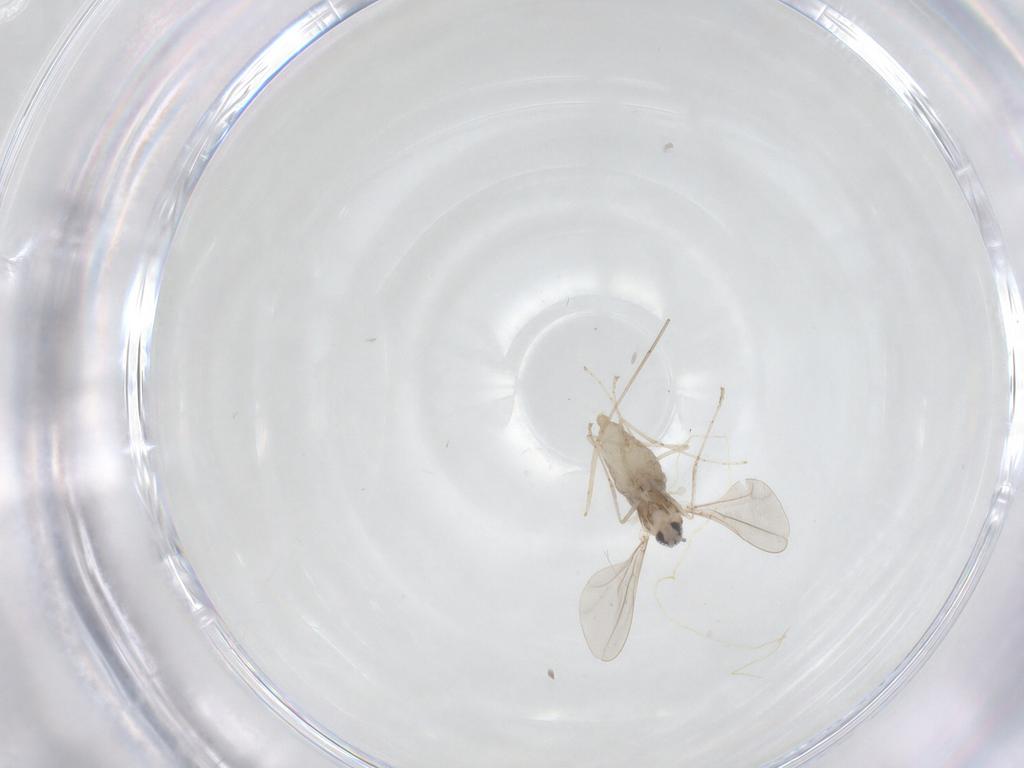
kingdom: Animalia
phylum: Arthropoda
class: Insecta
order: Diptera
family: Cecidomyiidae
